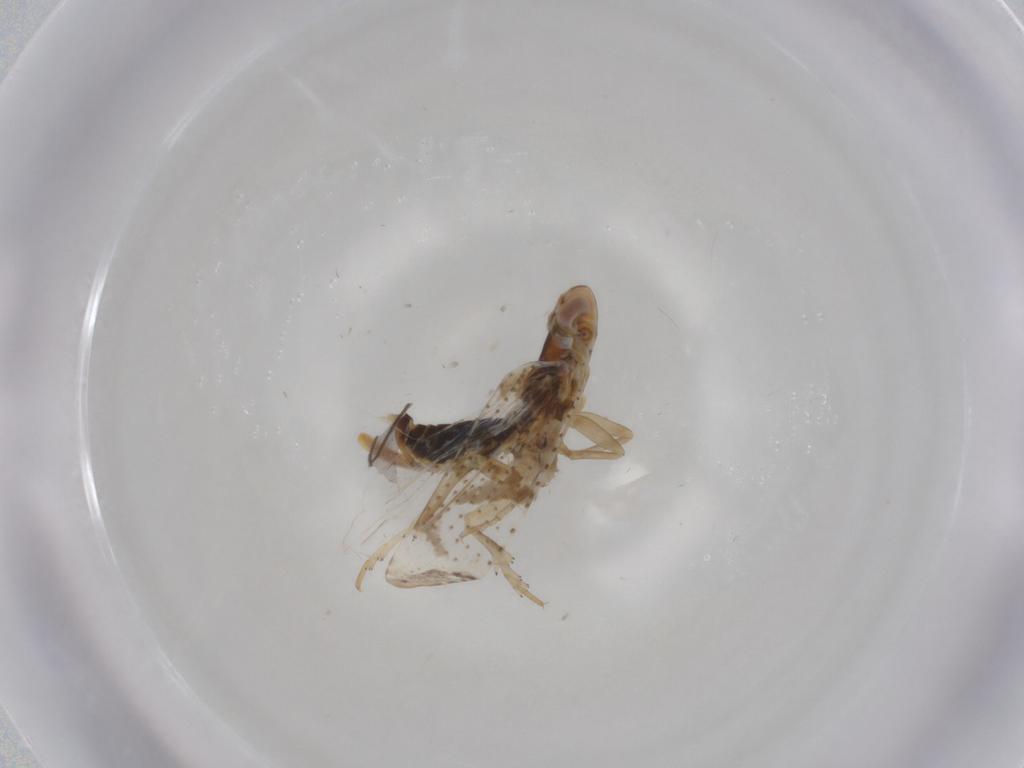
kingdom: Animalia
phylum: Arthropoda
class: Insecta
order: Hemiptera
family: Cixiidae
